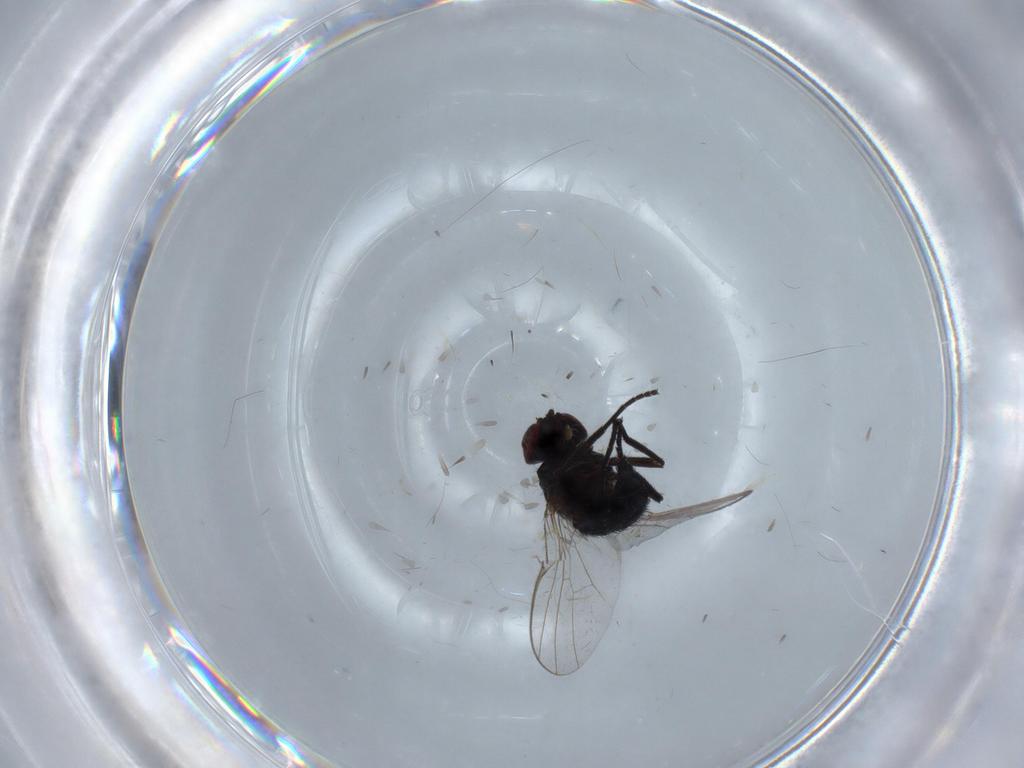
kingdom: Animalia
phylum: Arthropoda
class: Insecta
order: Diptera
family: Agromyzidae
